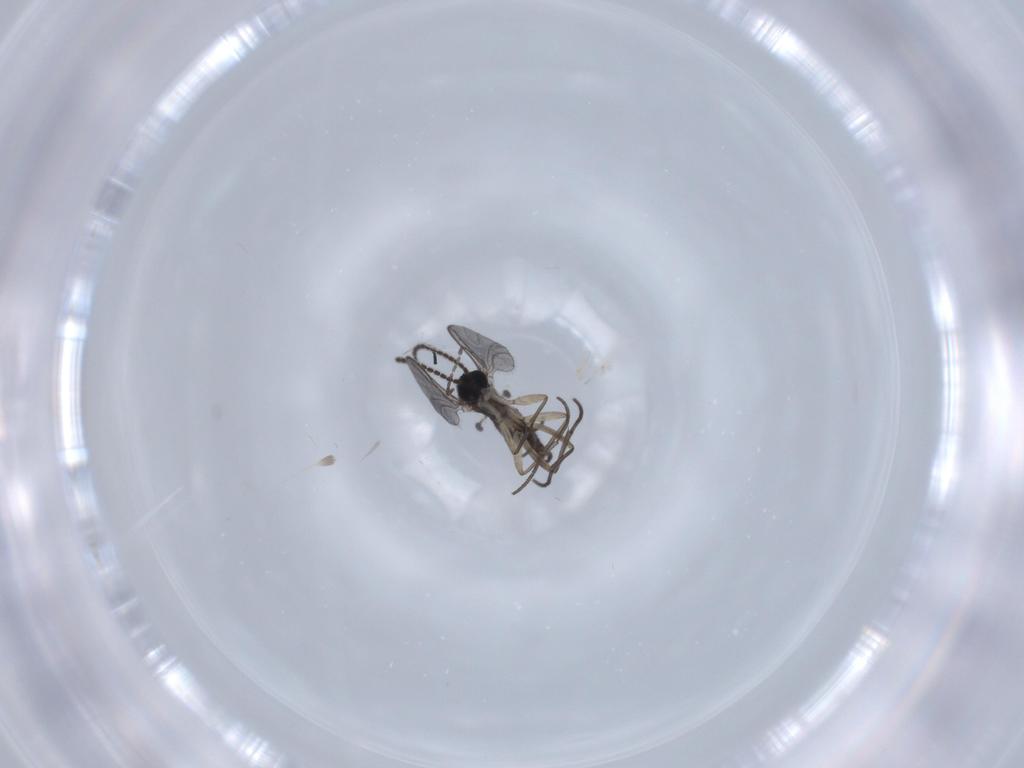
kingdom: Animalia
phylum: Arthropoda
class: Insecta
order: Diptera
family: Sciaridae
